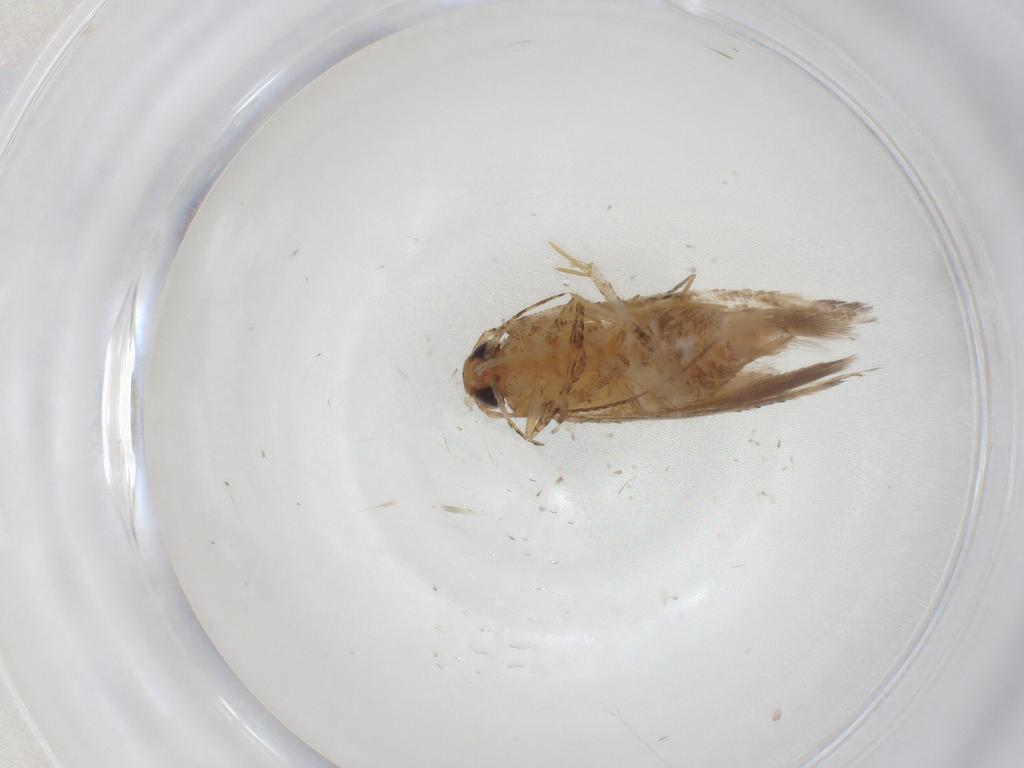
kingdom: Animalia
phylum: Arthropoda
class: Insecta
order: Lepidoptera
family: Gelechiidae
